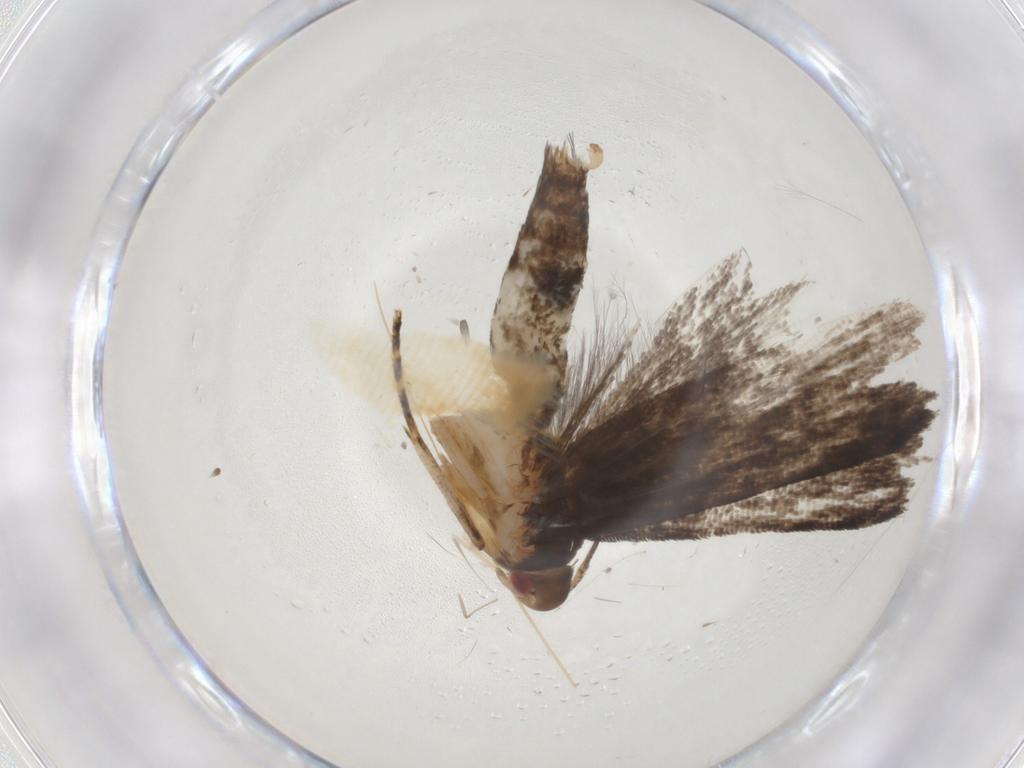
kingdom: Animalia
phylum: Arthropoda
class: Insecta
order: Lepidoptera
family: Gelechiidae
